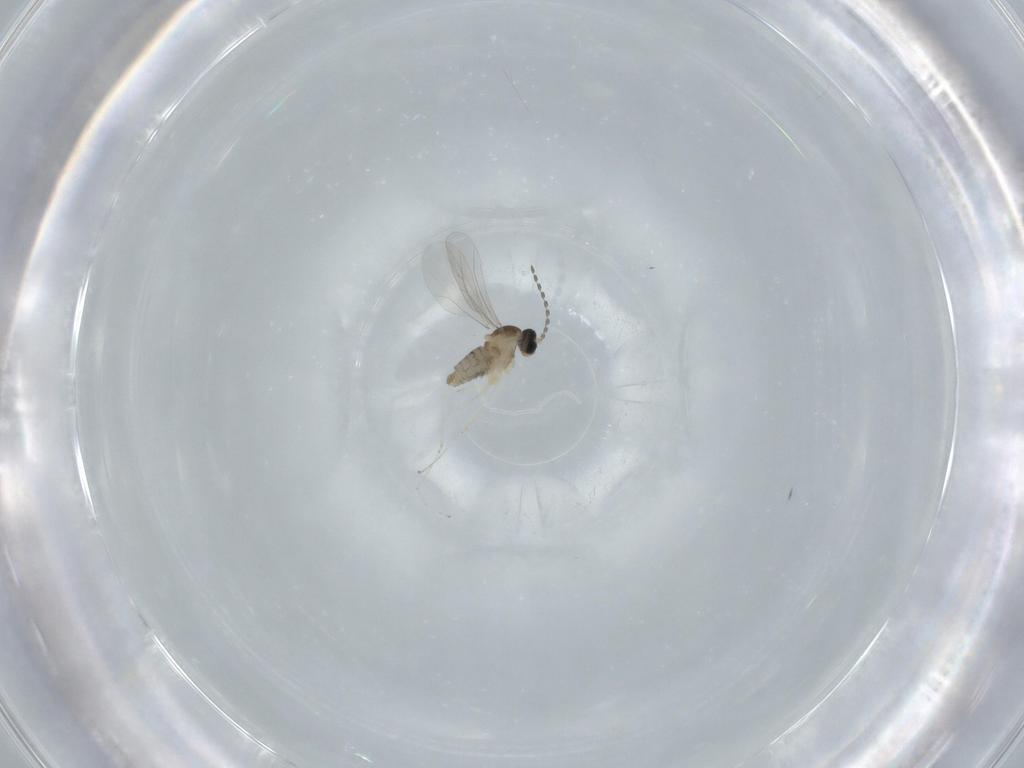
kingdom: Animalia
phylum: Arthropoda
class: Insecta
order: Diptera
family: Cecidomyiidae
